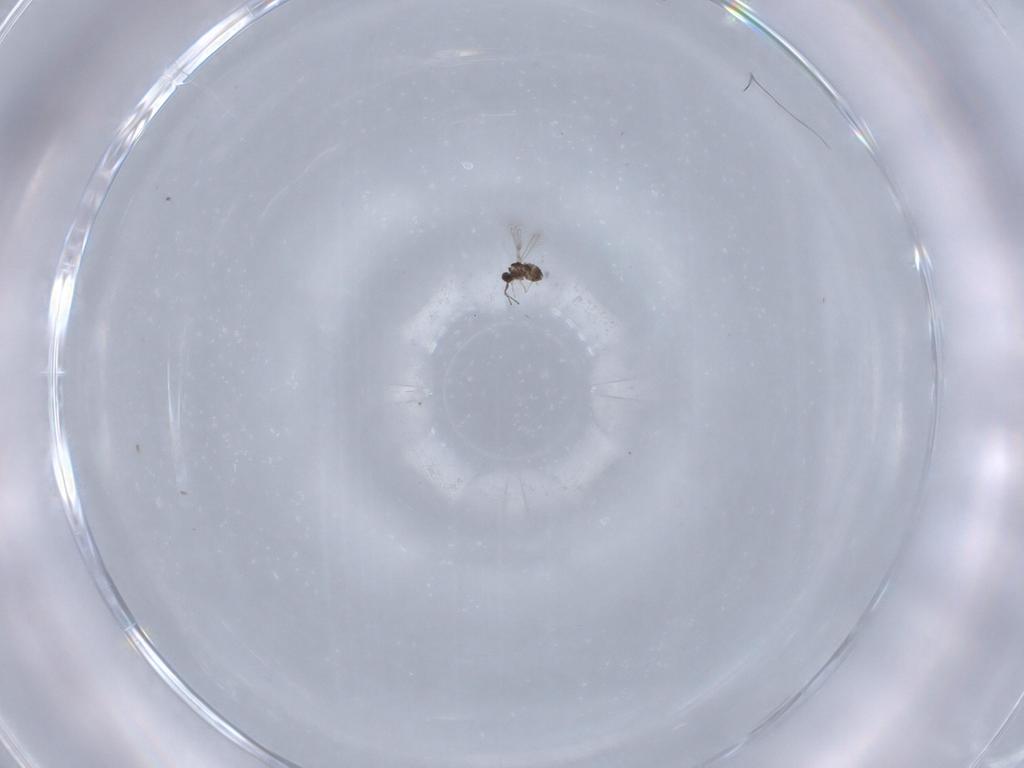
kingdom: Animalia
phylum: Arthropoda
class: Insecta
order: Hymenoptera
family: Mymaridae
